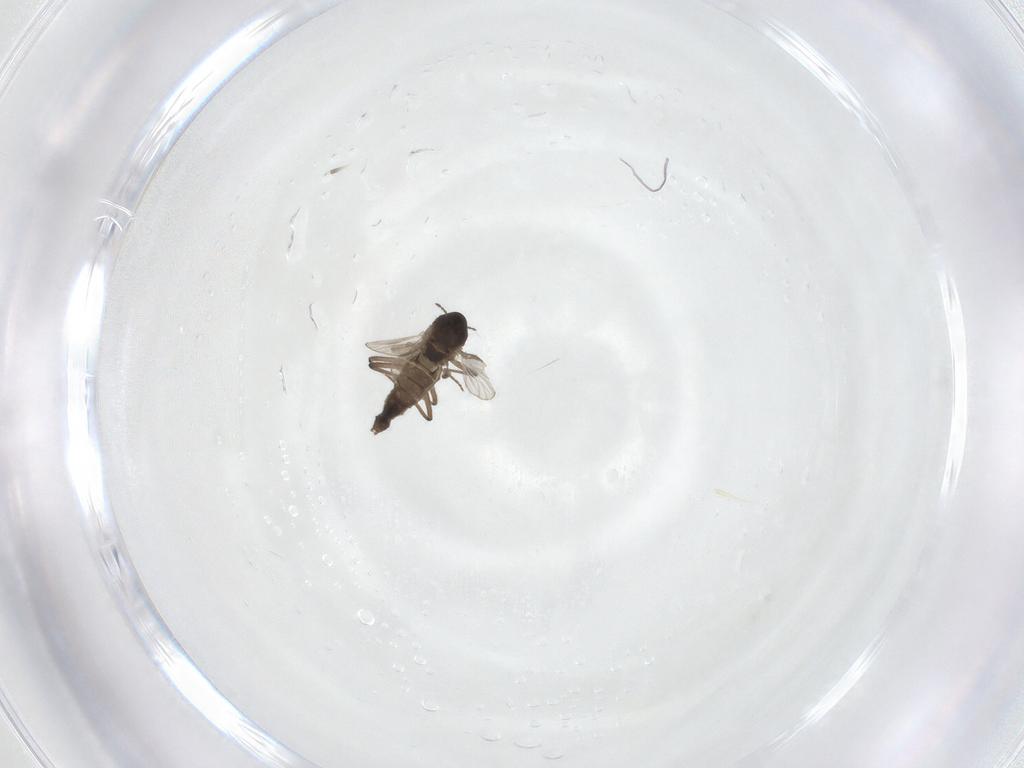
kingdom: Animalia
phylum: Arthropoda
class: Insecta
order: Diptera
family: Chironomidae
